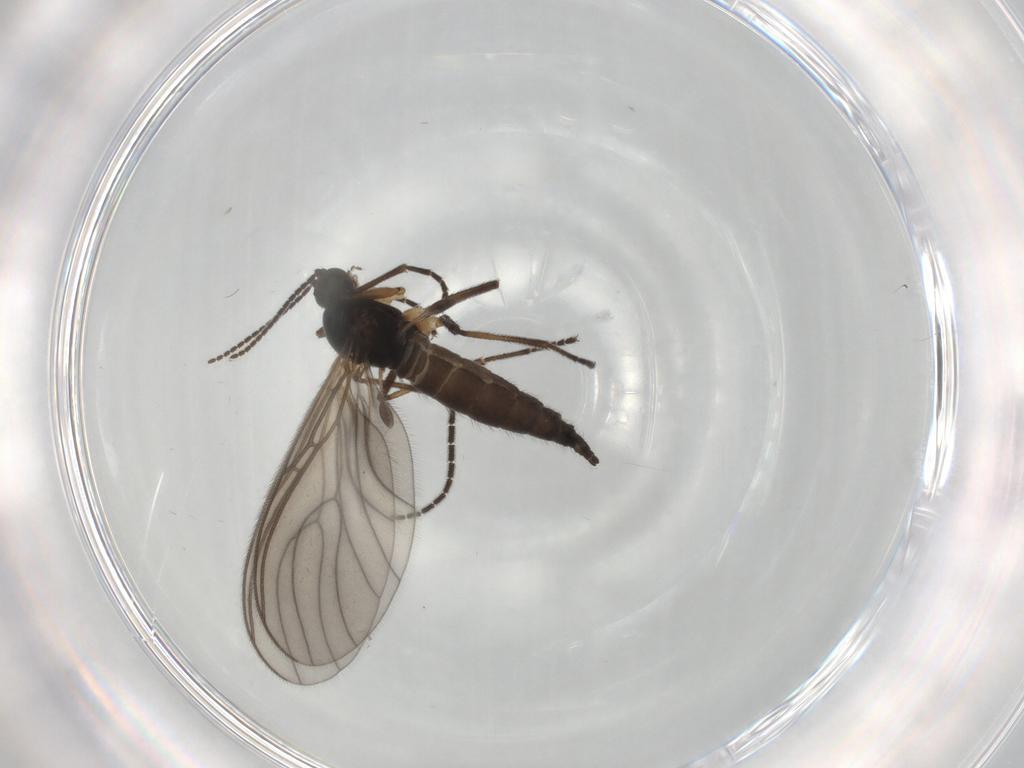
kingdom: Animalia
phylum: Arthropoda
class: Insecta
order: Diptera
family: Sciaridae
